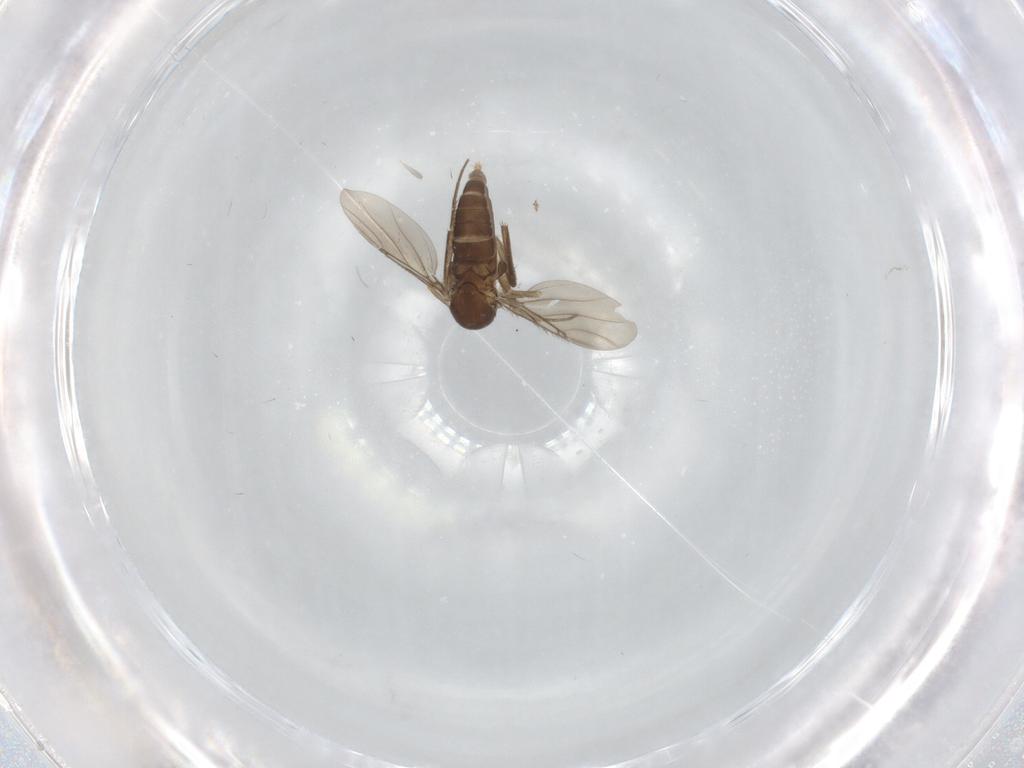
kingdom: Animalia
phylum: Arthropoda
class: Insecta
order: Diptera
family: Phoridae
